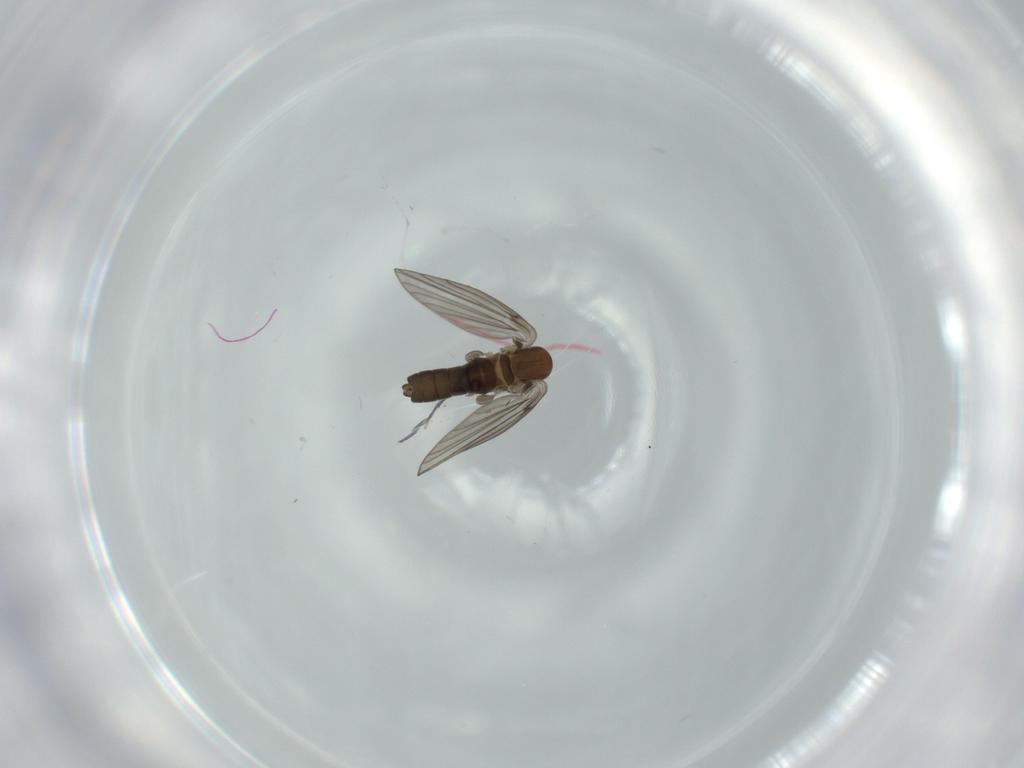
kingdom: Animalia
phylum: Arthropoda
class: Insecta
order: Diptera
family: Psychodidae
